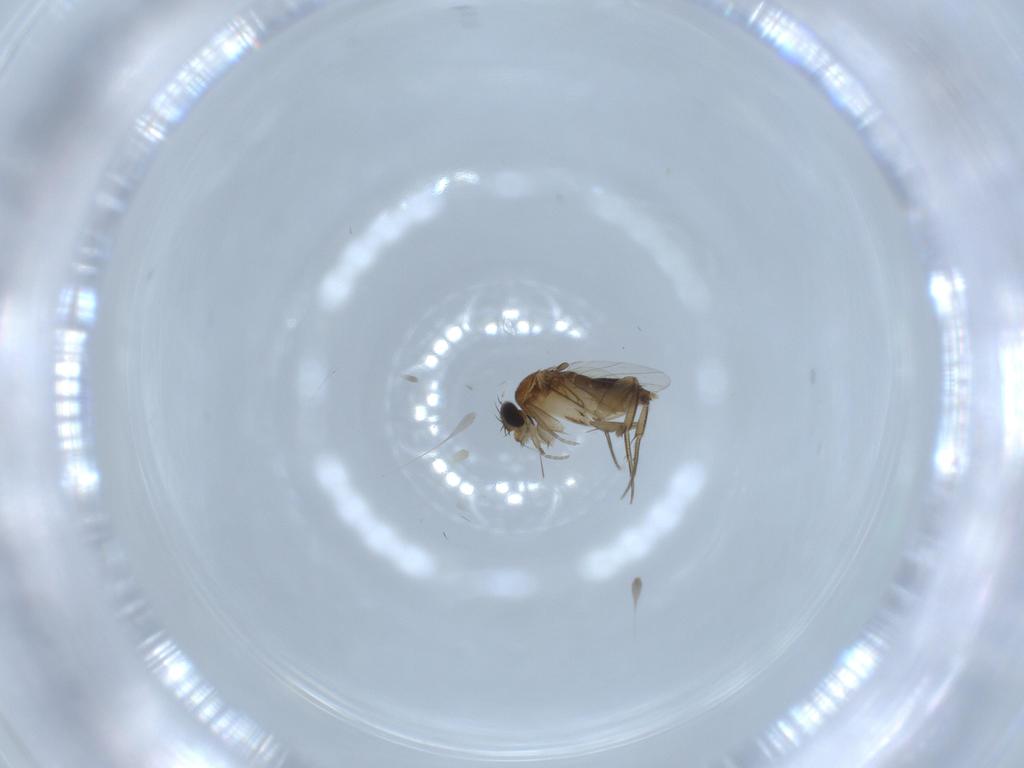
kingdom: Animalia
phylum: Arthropoda
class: Insecta
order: Diptera
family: Phoridae
